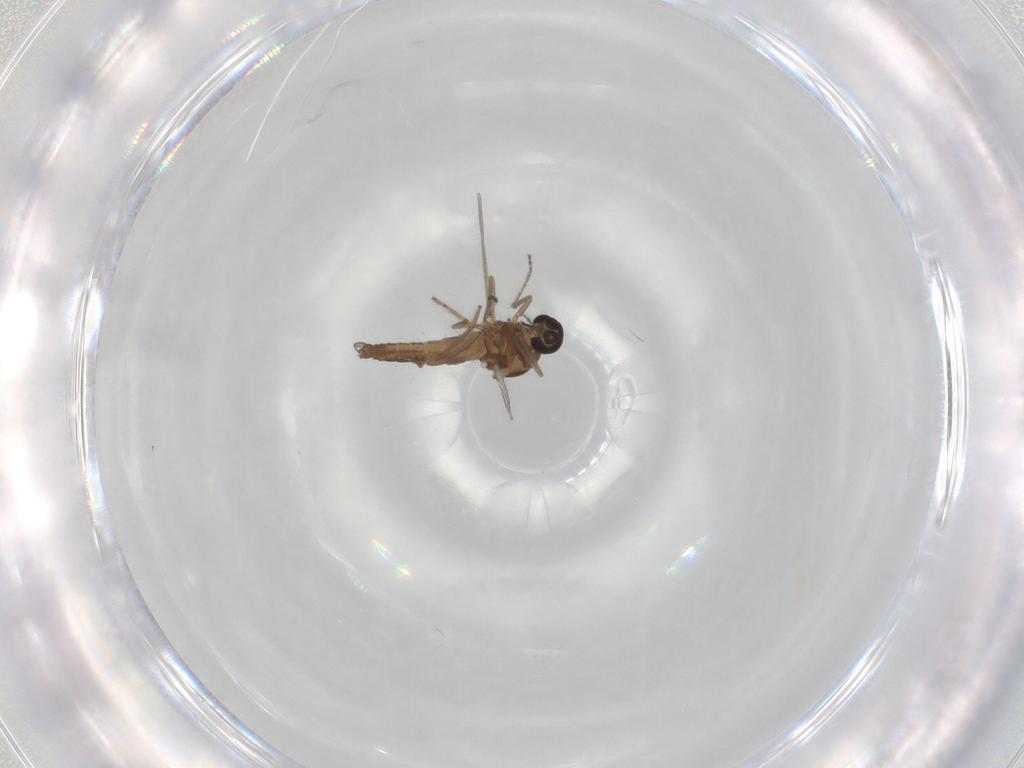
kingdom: Animalia
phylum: Arthropoda
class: Insecta
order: Diptera
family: Ceratopogonidae
